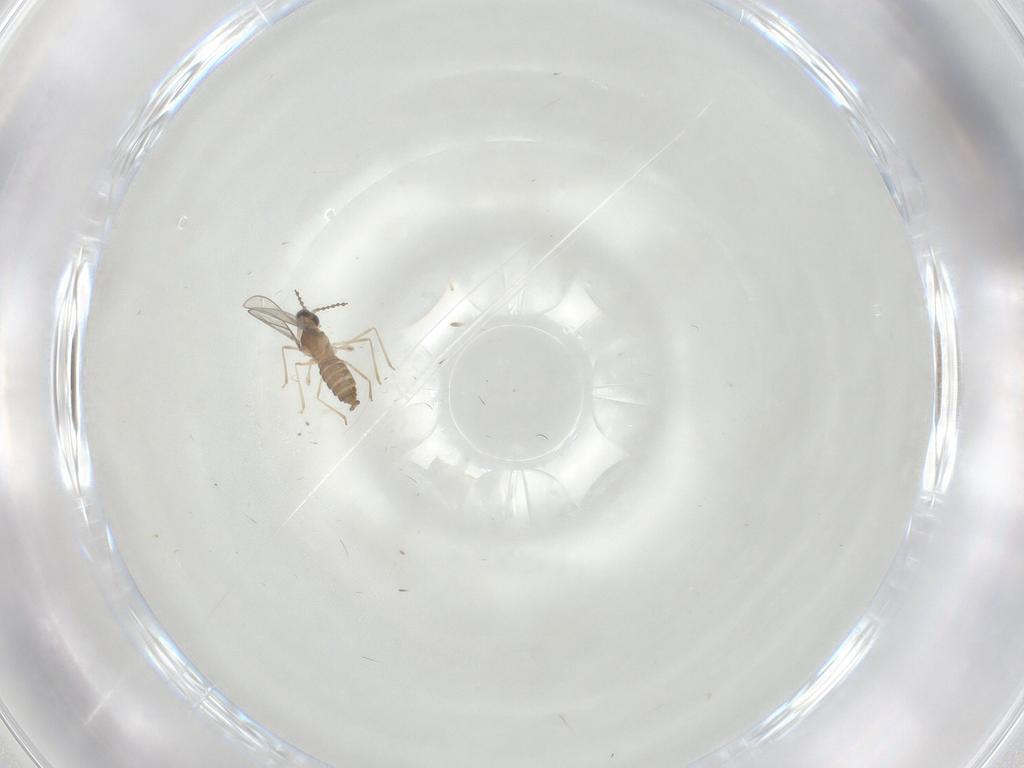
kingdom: Animalia
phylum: Arthropoda
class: Insecta
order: Diptera
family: Cecidomyiidae
